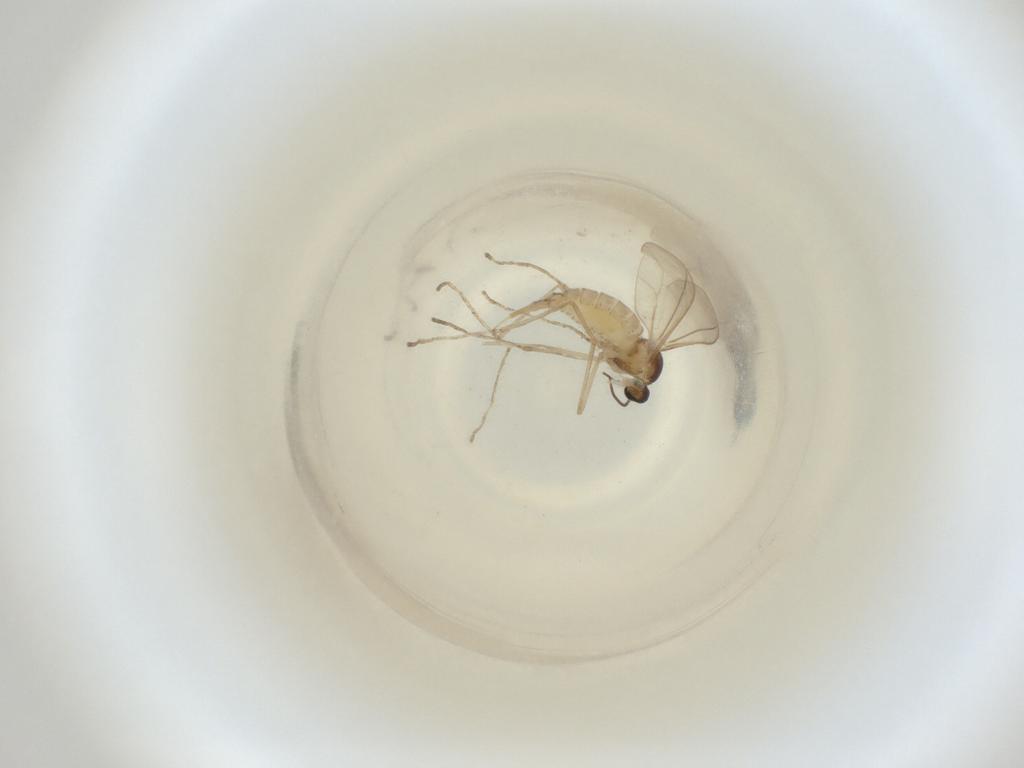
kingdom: Animalia
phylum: Arthropoda
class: Insecta
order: Diptera
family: Cecidomyiidae
